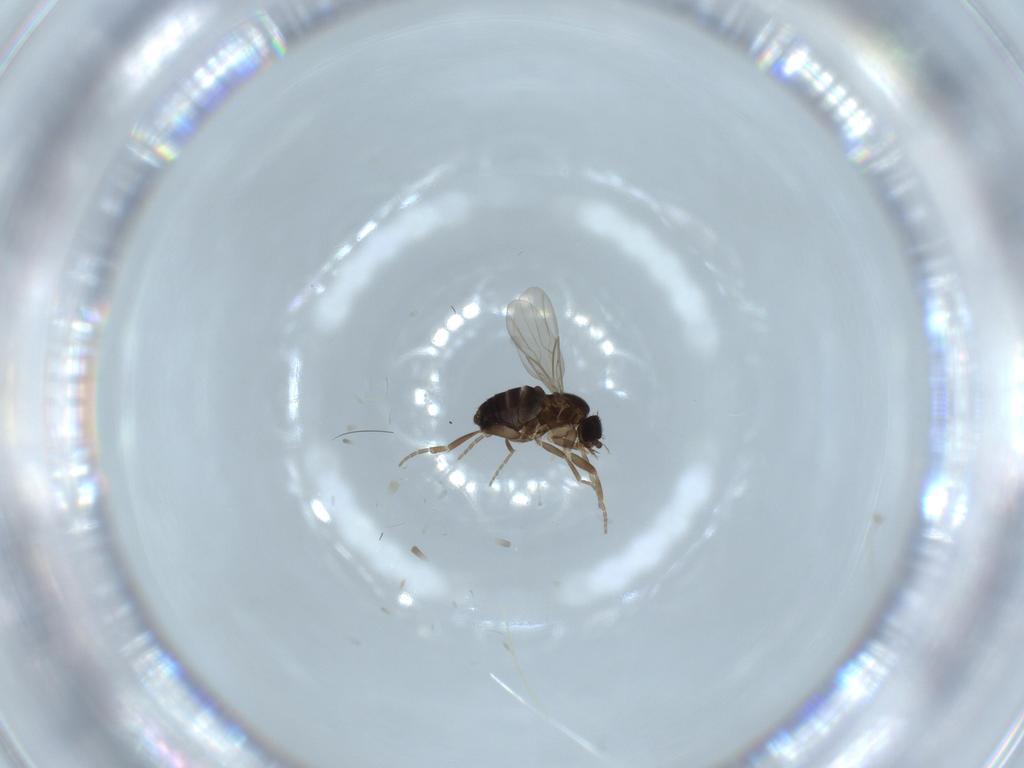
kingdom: Animalia
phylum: Arthropoda
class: Insecta
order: Diptera
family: Phoridae
